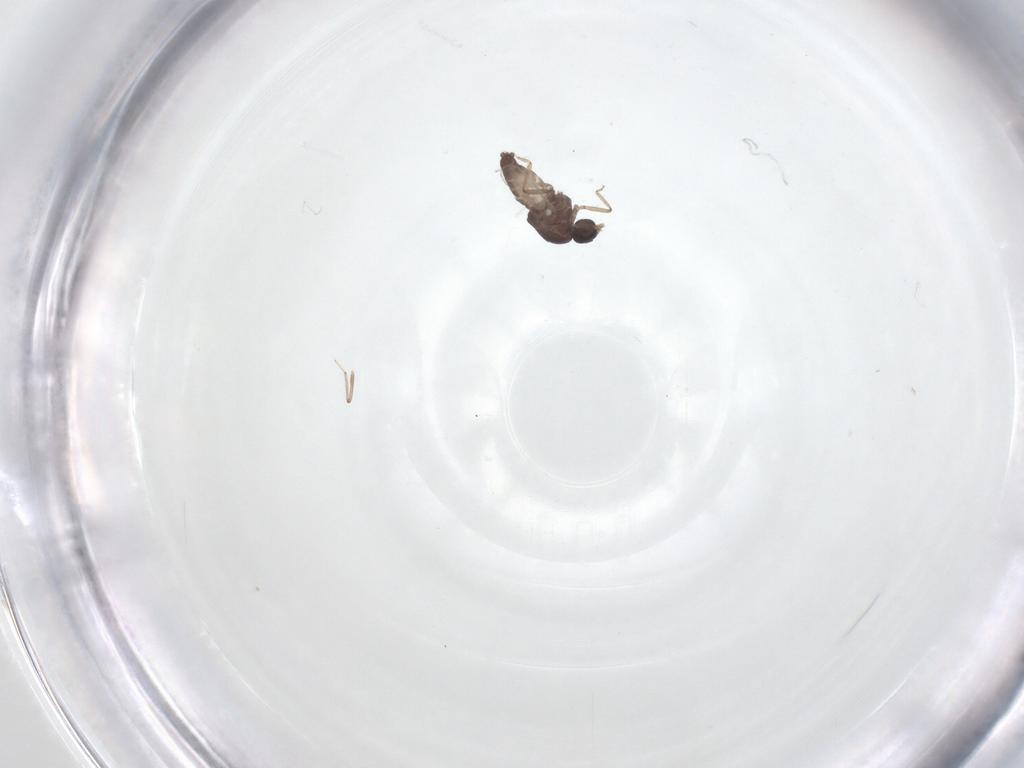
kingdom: Animalia
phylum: Arthropoda
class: Insecta
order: Diptera
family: Ceratopogonidae
